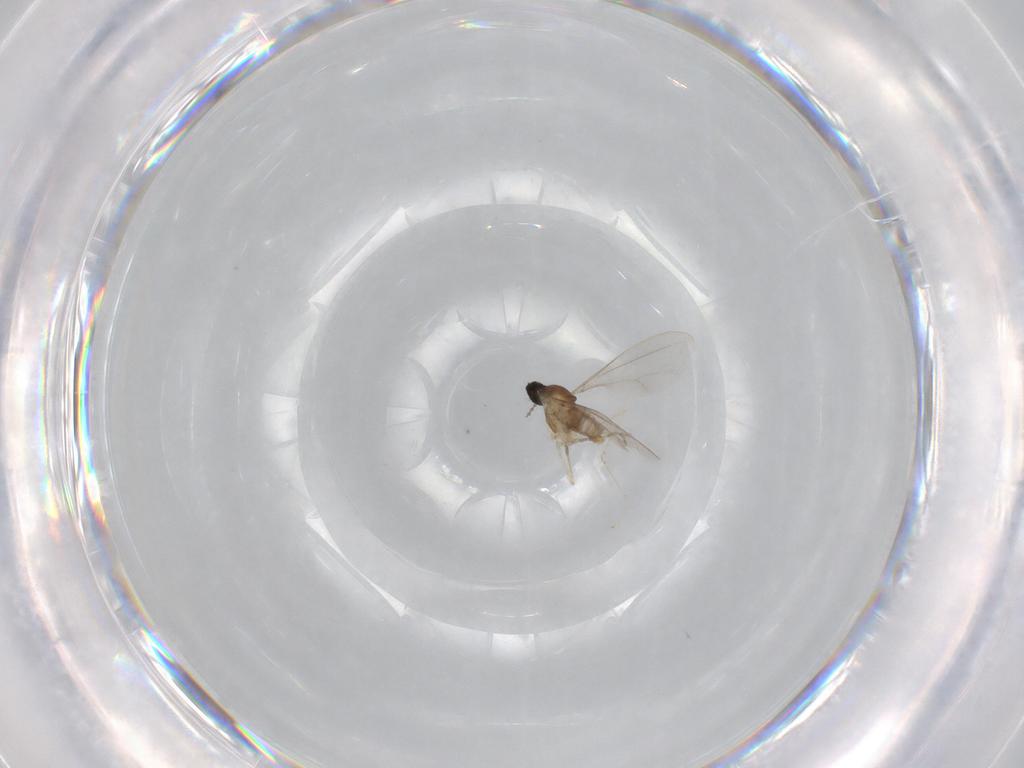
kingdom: Animalia
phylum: Arthropoda
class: Insecta
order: Diptera
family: Cecidomyiidae
